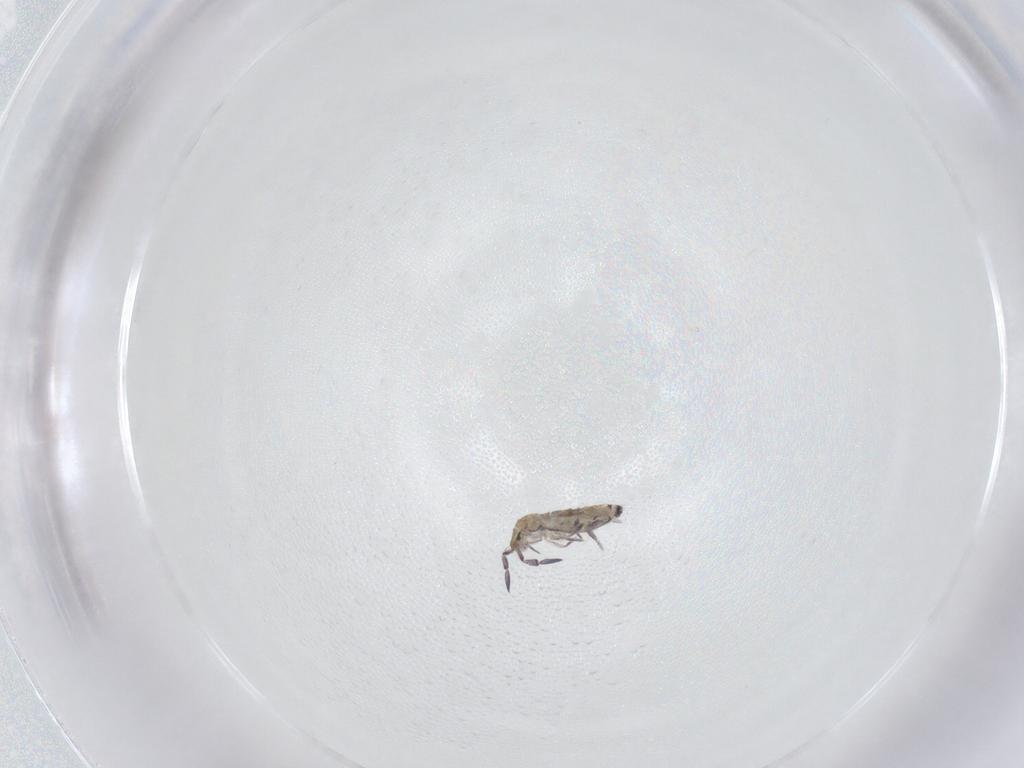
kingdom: Animalia
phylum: Arthropoda
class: Collembola
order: Entomobryomorpha
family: Entomobryidae
